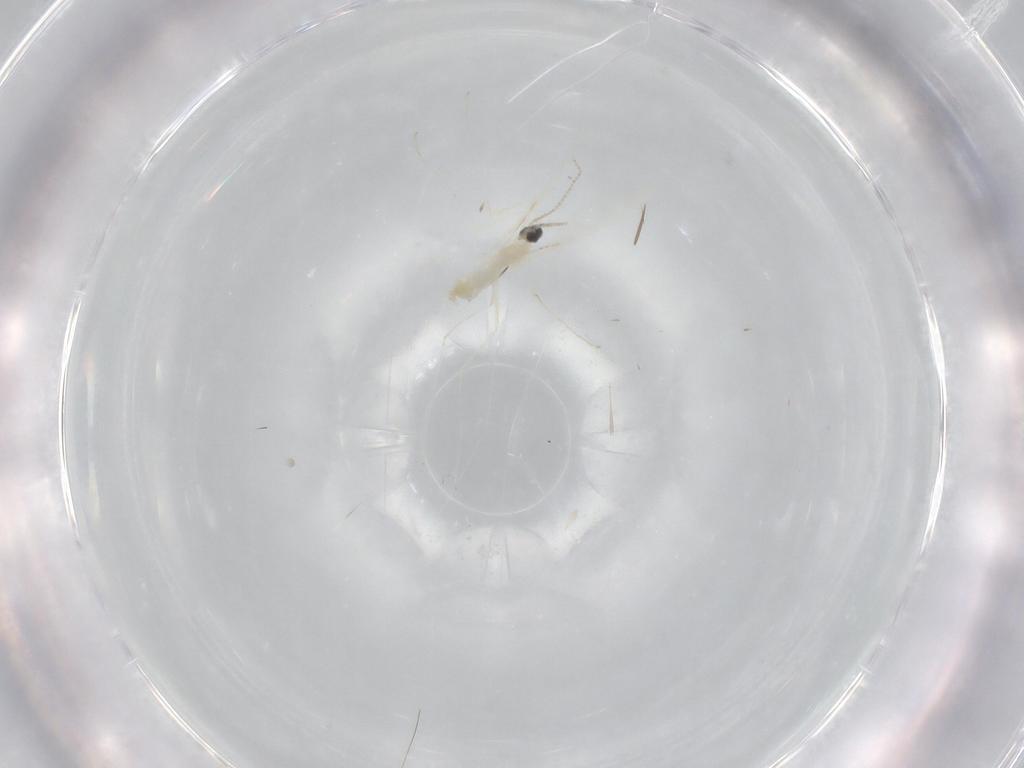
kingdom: Animalia
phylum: Arthropoda
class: Insecta
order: Diptera
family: Cecidomyiidae
